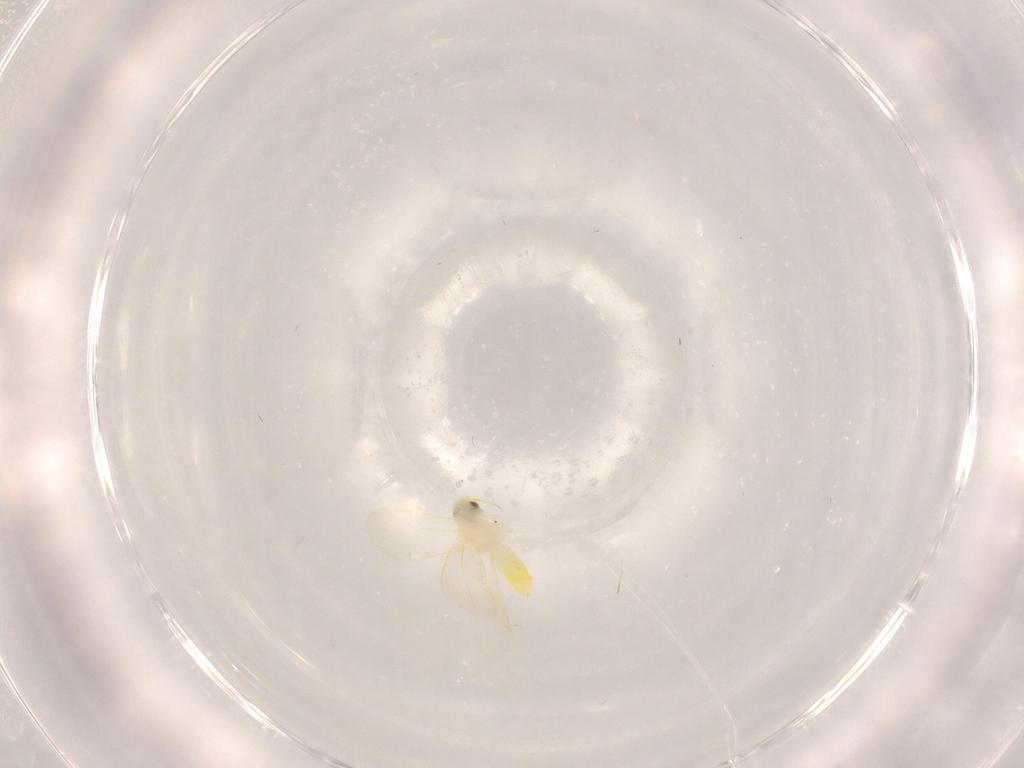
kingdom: Animalia
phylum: Arthropoda
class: Insecta
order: Hemiptera
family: Aleyrodidae
